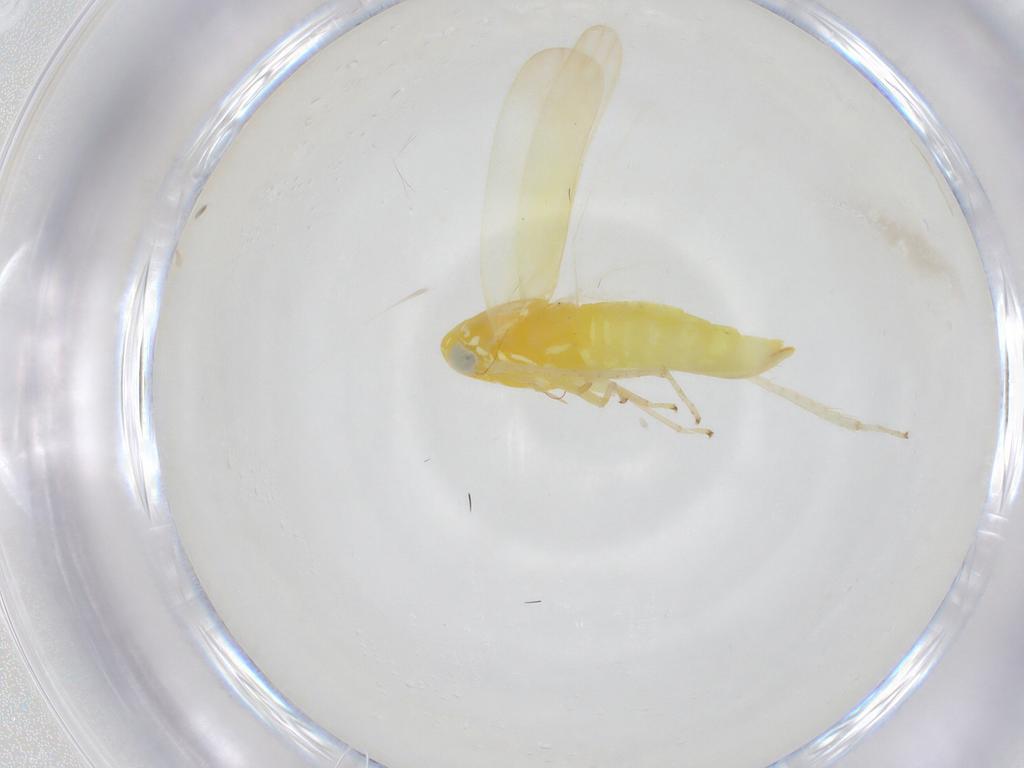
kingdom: Animalia
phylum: Arthropoda
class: Insecta
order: Hemiptera
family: Cicadellidae
